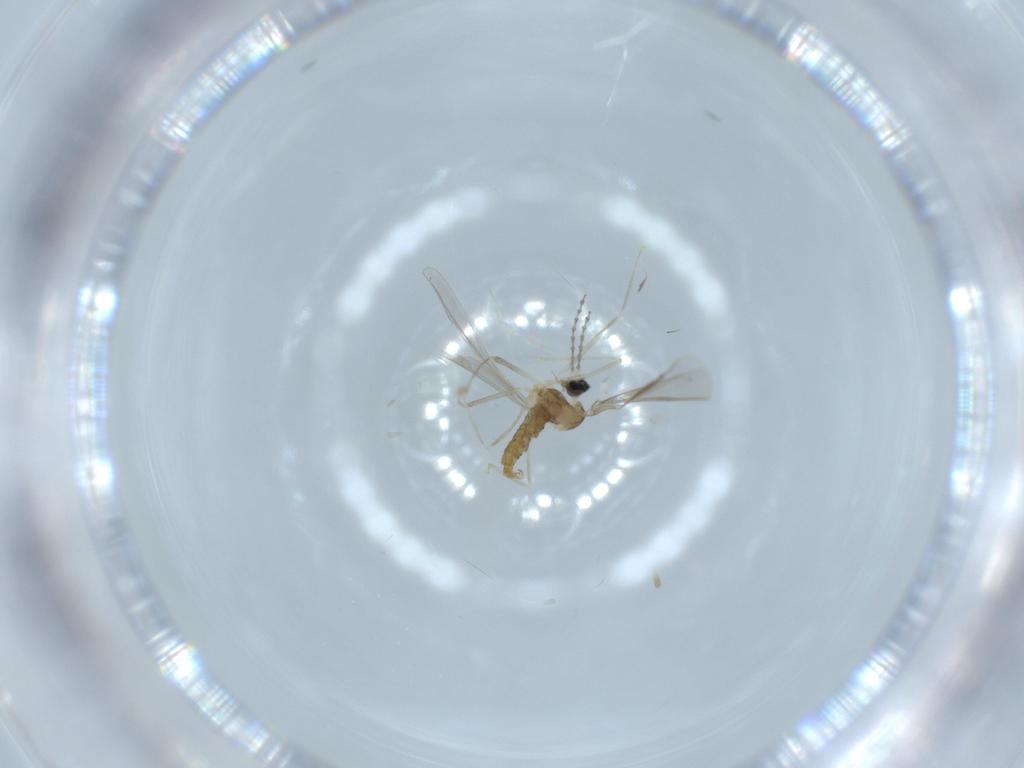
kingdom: Animalia
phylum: Arthropoda
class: Insecta
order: Diptera
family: Cecidomyiidae
